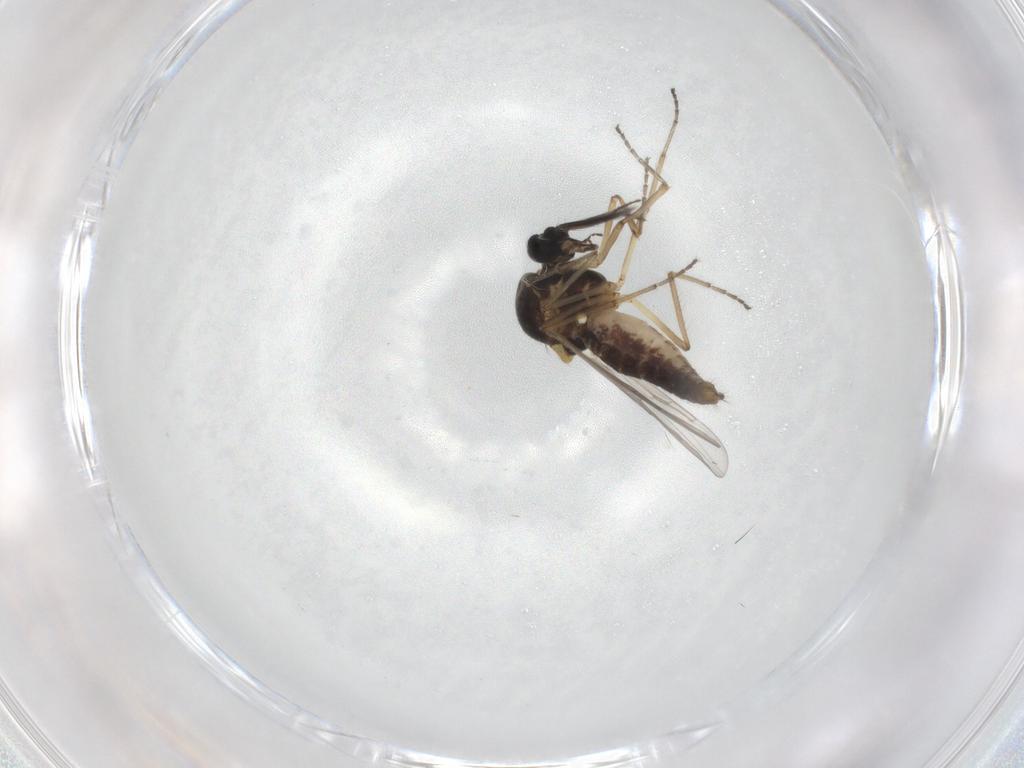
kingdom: Animalia
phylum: Arthropoda
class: Insecta
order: Diptera
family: Ceratopogonidae
